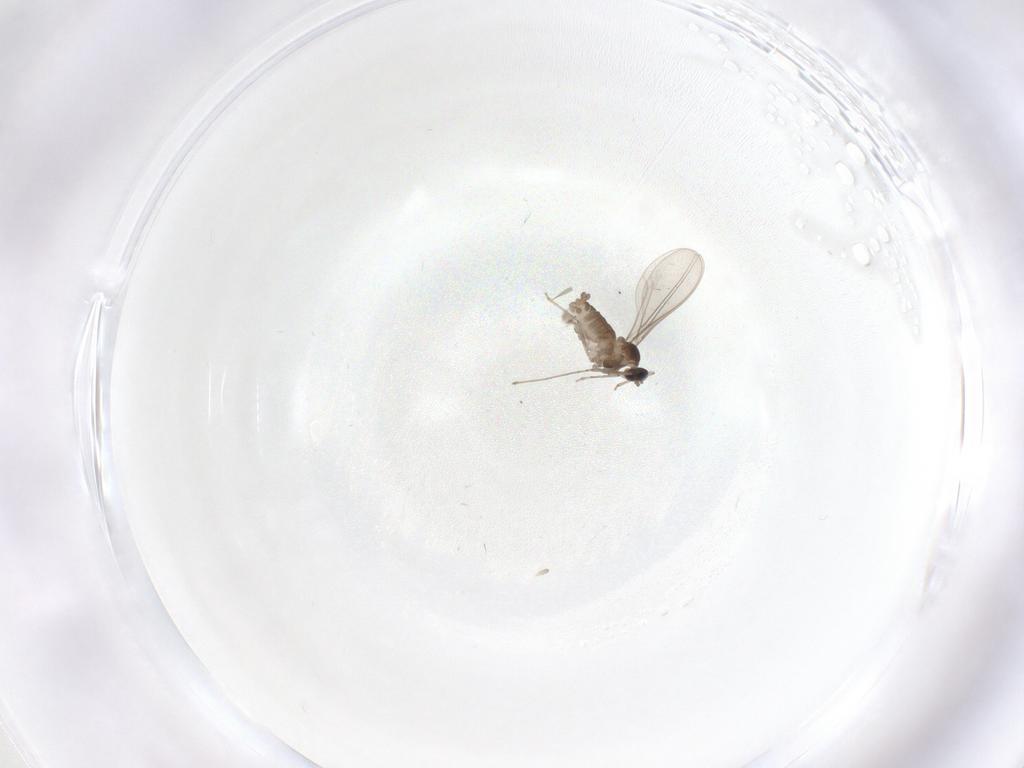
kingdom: Animalia
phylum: Arthropoda
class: Insecta
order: Diptera
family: Cecidomyiidae
